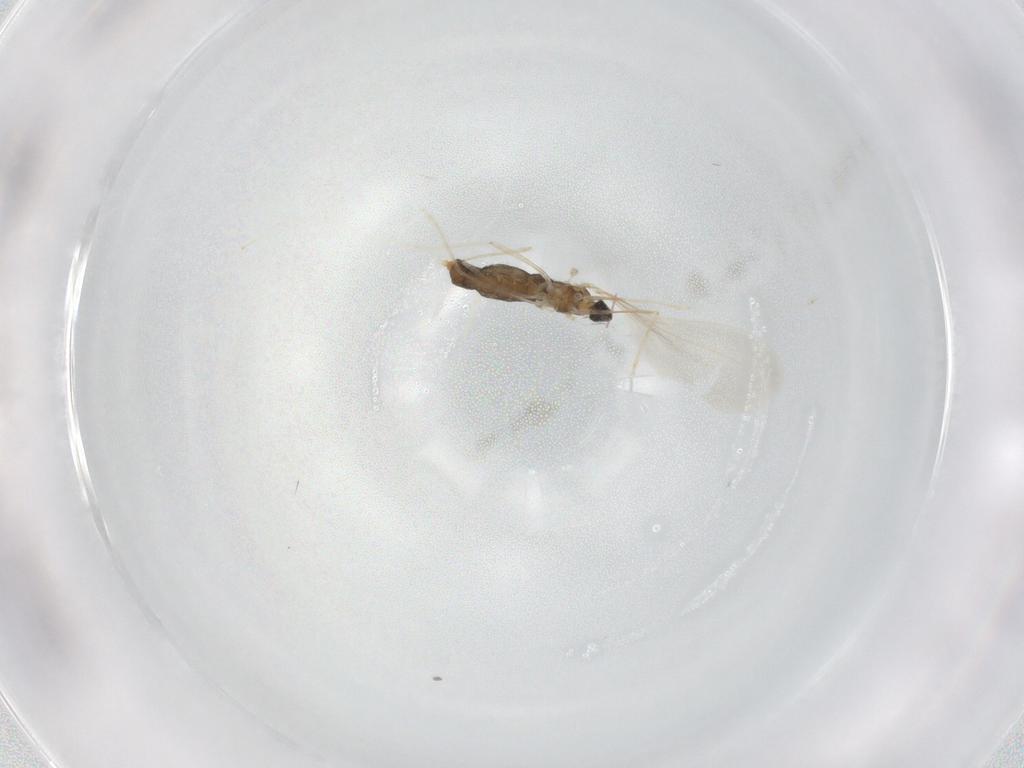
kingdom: Animalia
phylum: Arthropoda
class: Insecta
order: Diptera
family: Cecidomyiidae
